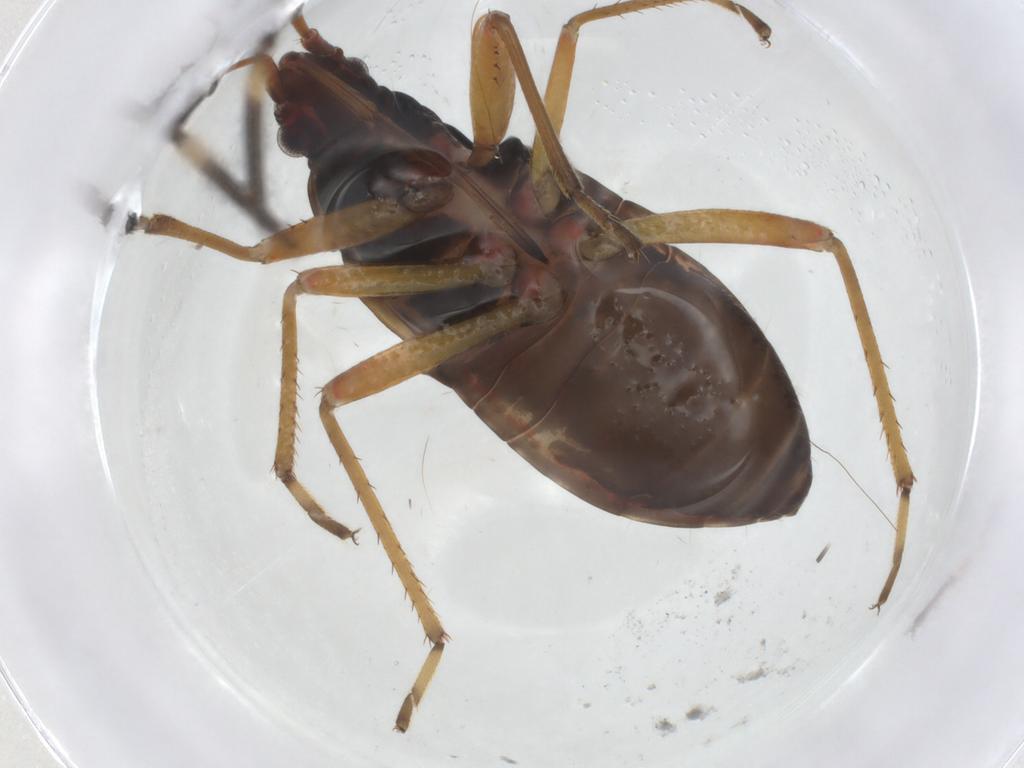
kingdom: Animalia
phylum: Arthropoda
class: Insecta
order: Hemiptera
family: Rhyparochromidae
